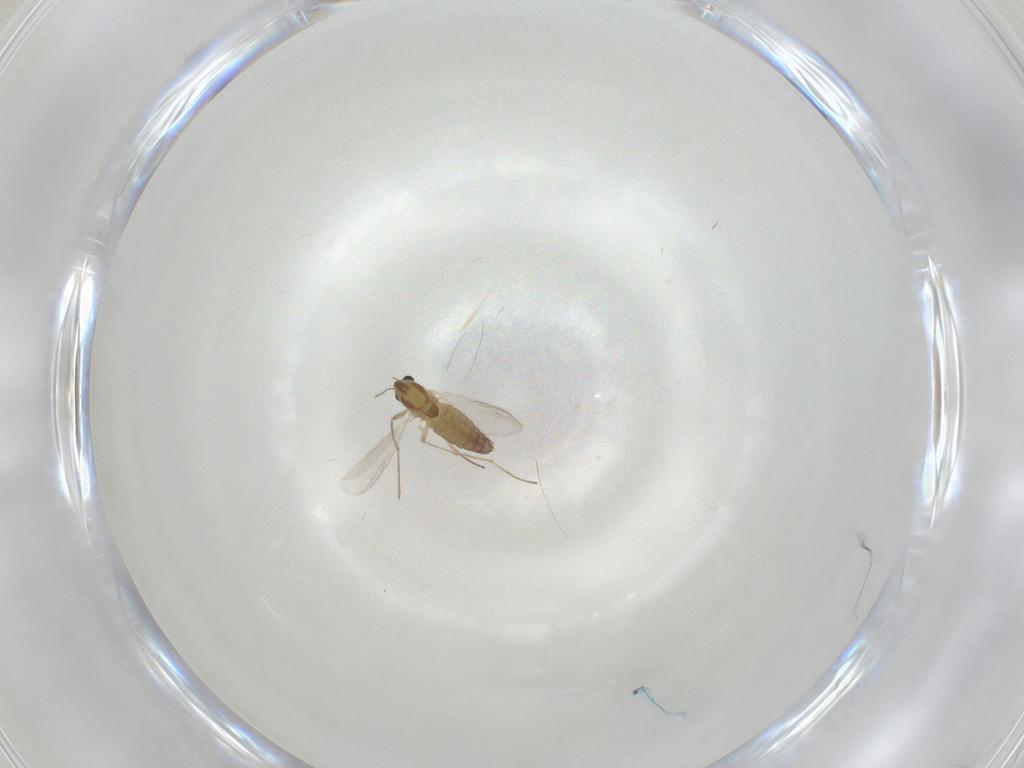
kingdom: Animalia
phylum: Arthropoda
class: Insecta
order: Diptera
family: Chironomidae
